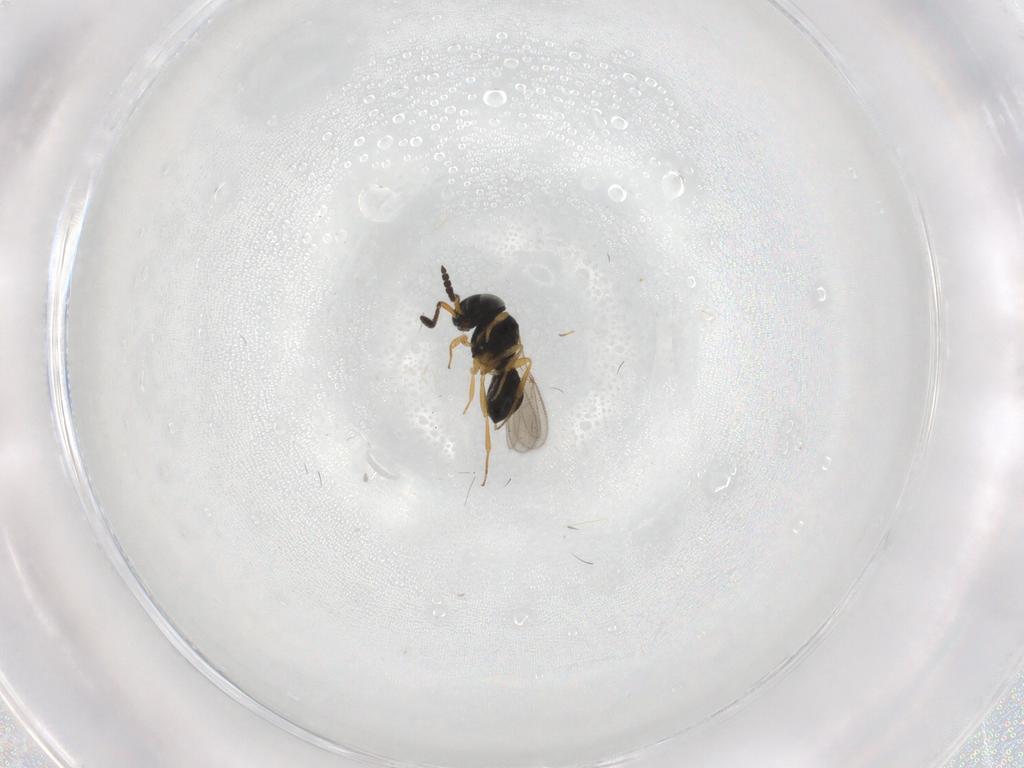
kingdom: Animalia
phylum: Arthropoda
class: Insecta
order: Hymenoptera
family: Scelionidae
